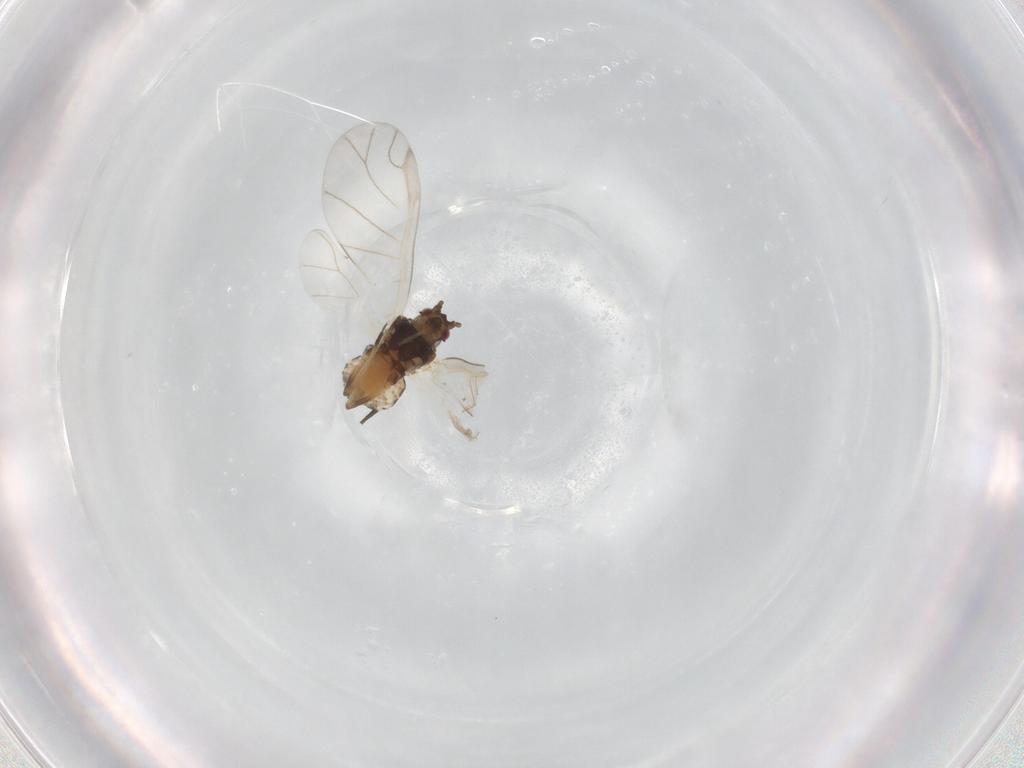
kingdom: Animalia
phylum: Arthropoda
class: Insecta
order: Hemiptera
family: Aphididae
